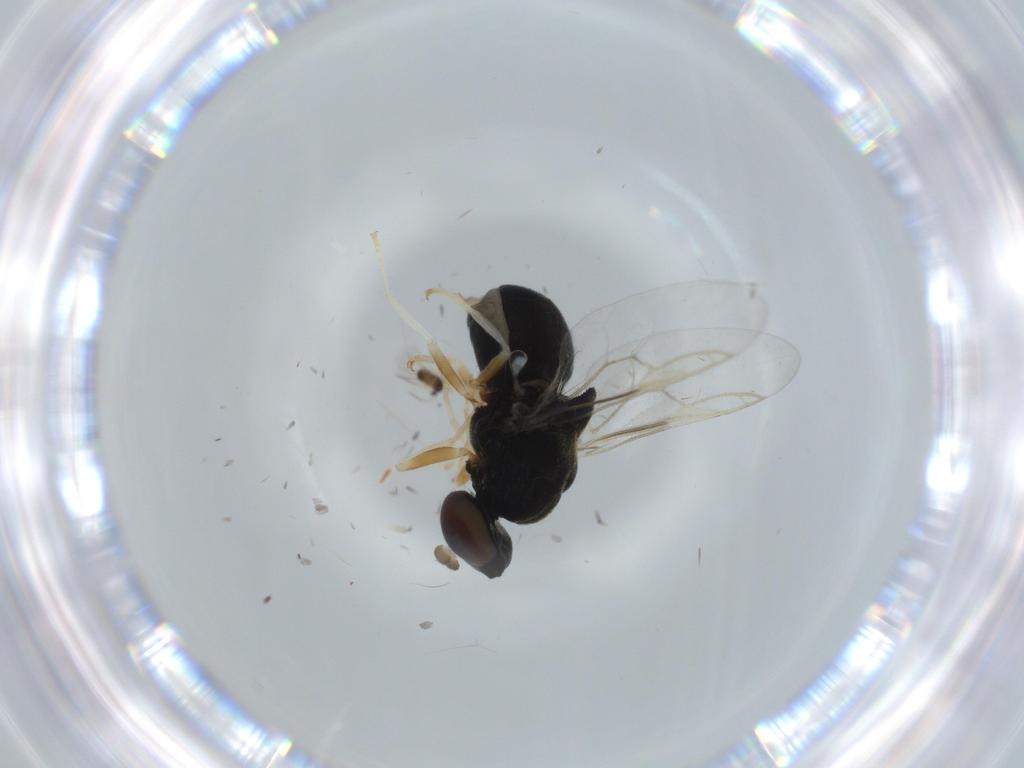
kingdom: Animalia
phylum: Arthropoda
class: Insecta
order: Diptera
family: Stratiomyidae
